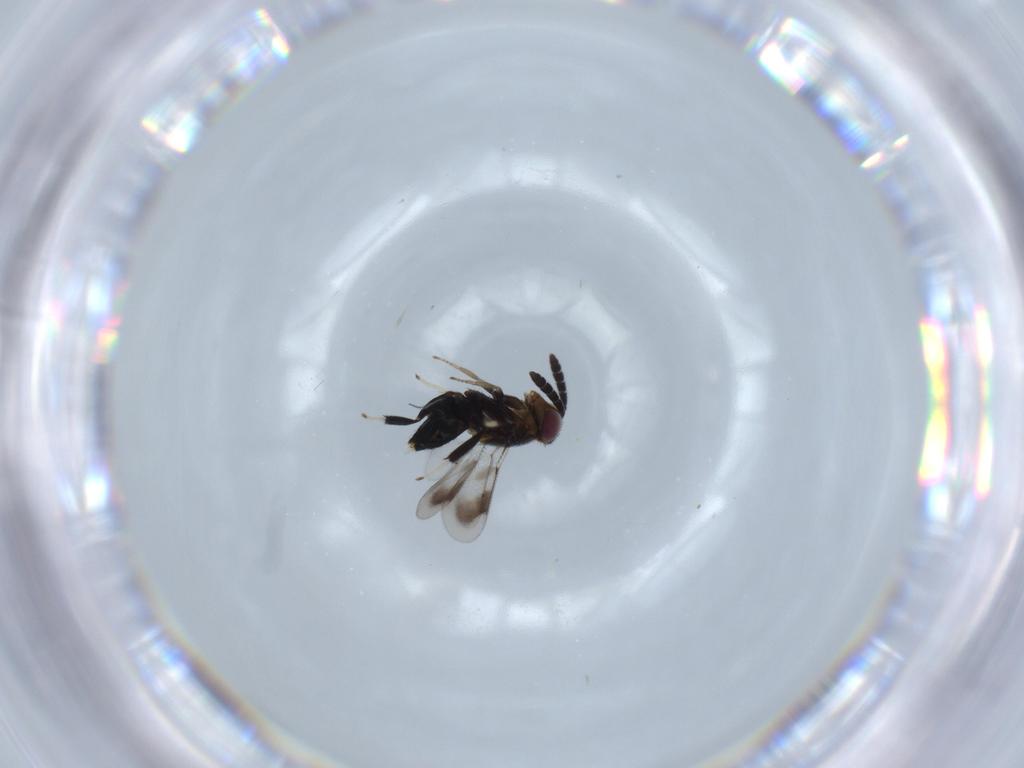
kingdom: Animalia
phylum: Arthropoda
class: Insecta
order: Hymenoptera
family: Aphelinidae
